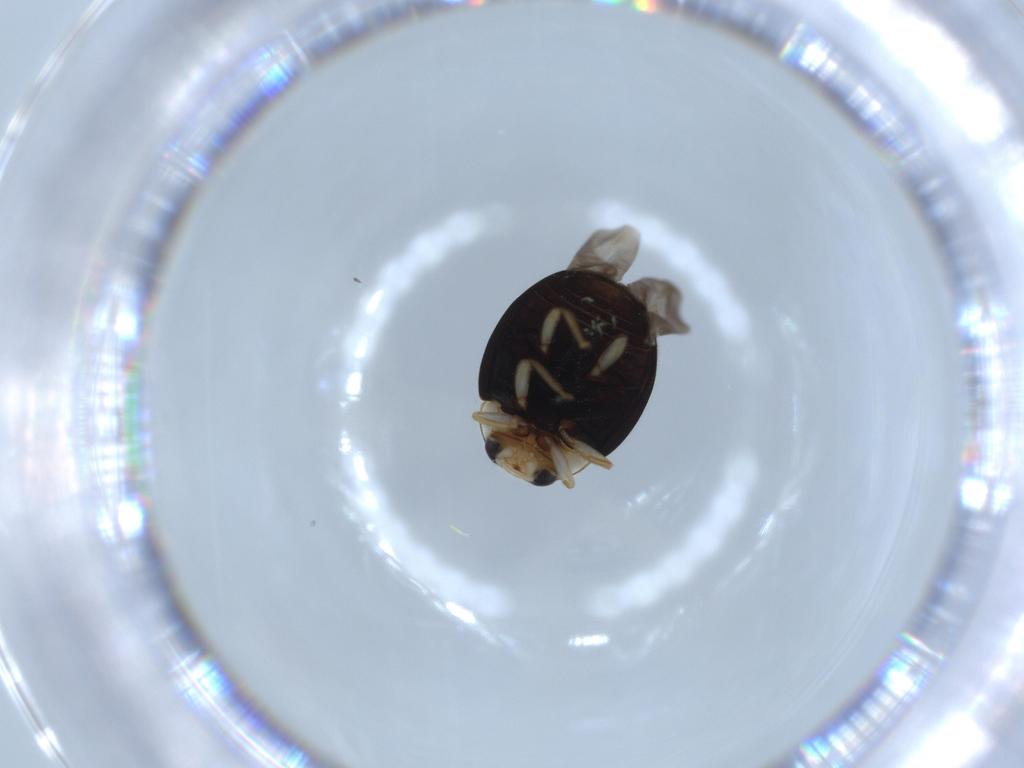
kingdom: Animalia
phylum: Arthropoda
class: Insecta
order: Coleoptera
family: Coccinellidae
